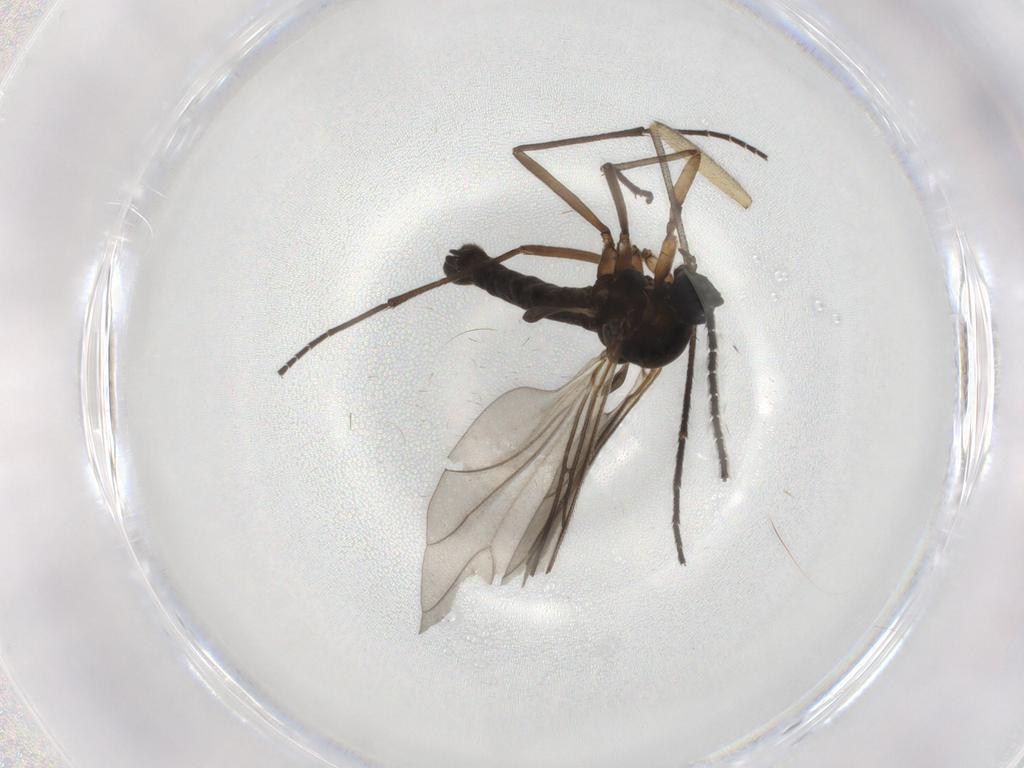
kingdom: Animalia
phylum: Arthropoda
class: Insecta
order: Diptera
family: Sciaridae
